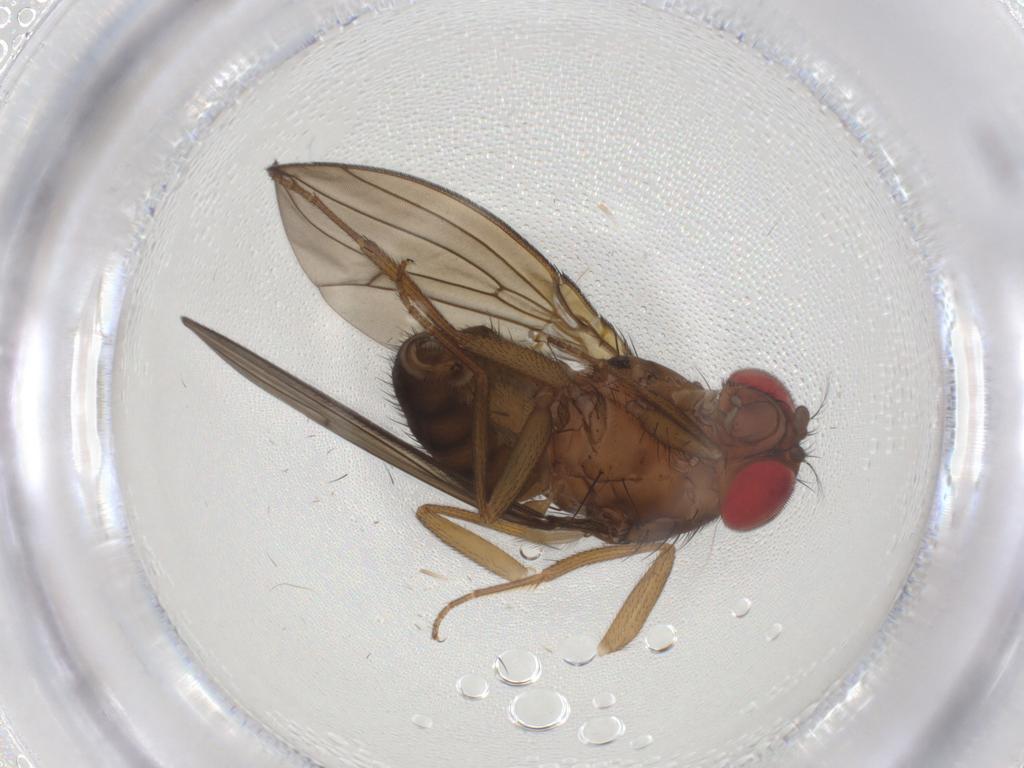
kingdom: Animalia
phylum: Arthropoda
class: Insecta
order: Diptera
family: Periscelididae
